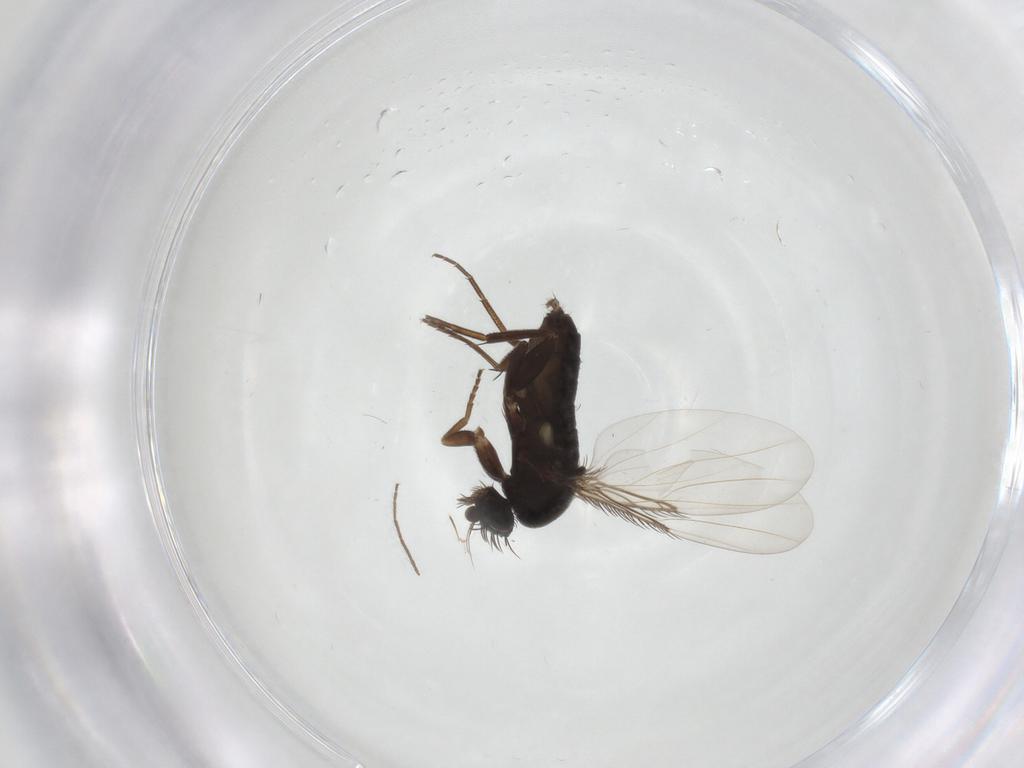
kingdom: Animalia
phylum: Arthropoda
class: Insecta
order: Diptera
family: Phoridae
